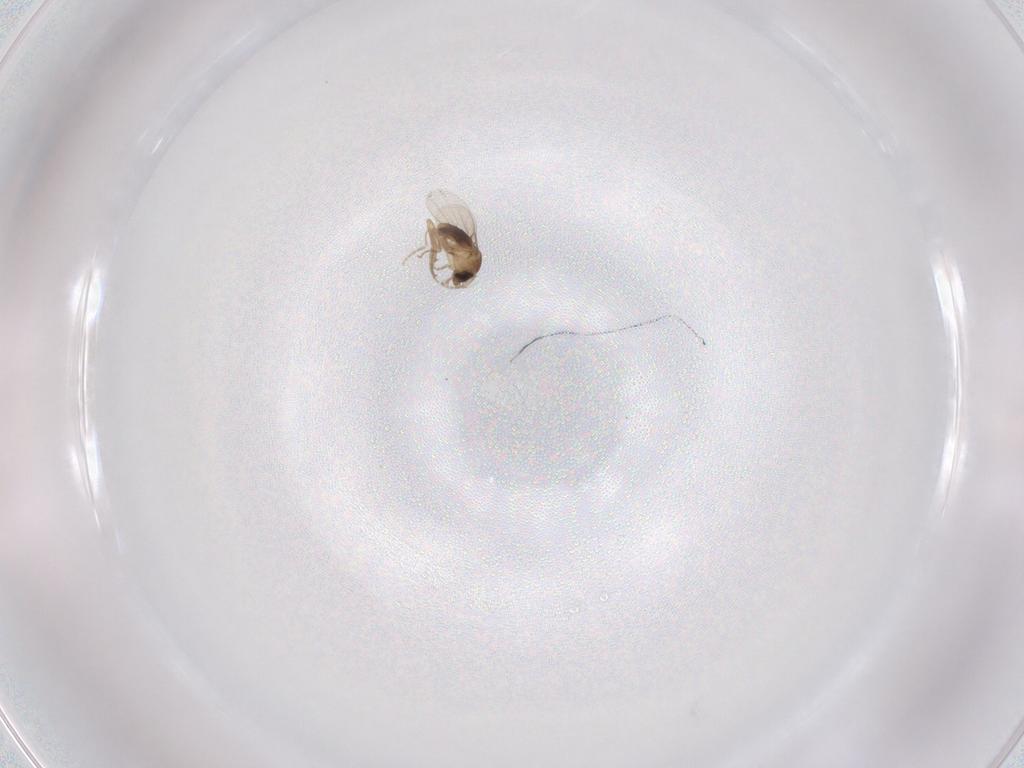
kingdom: Animalia
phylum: Arthropoda
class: Insecta
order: Diptera
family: Phoridae
